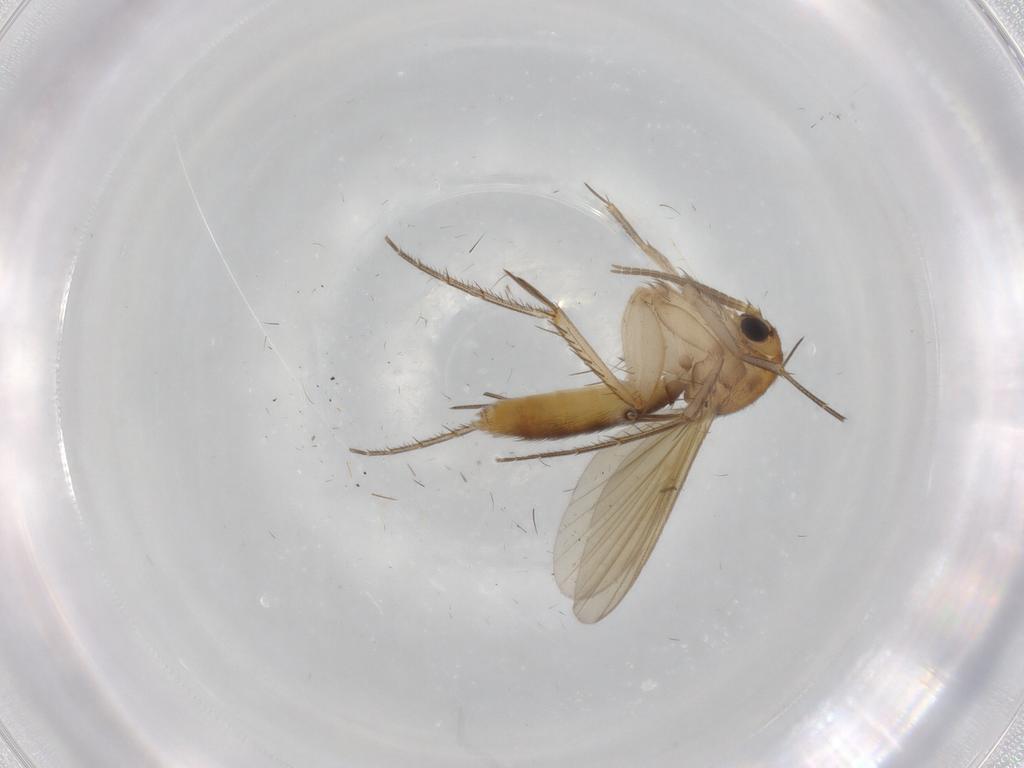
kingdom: Animalia
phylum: Arthropoda
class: Insecta
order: Diptera
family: Mycetophilidae
